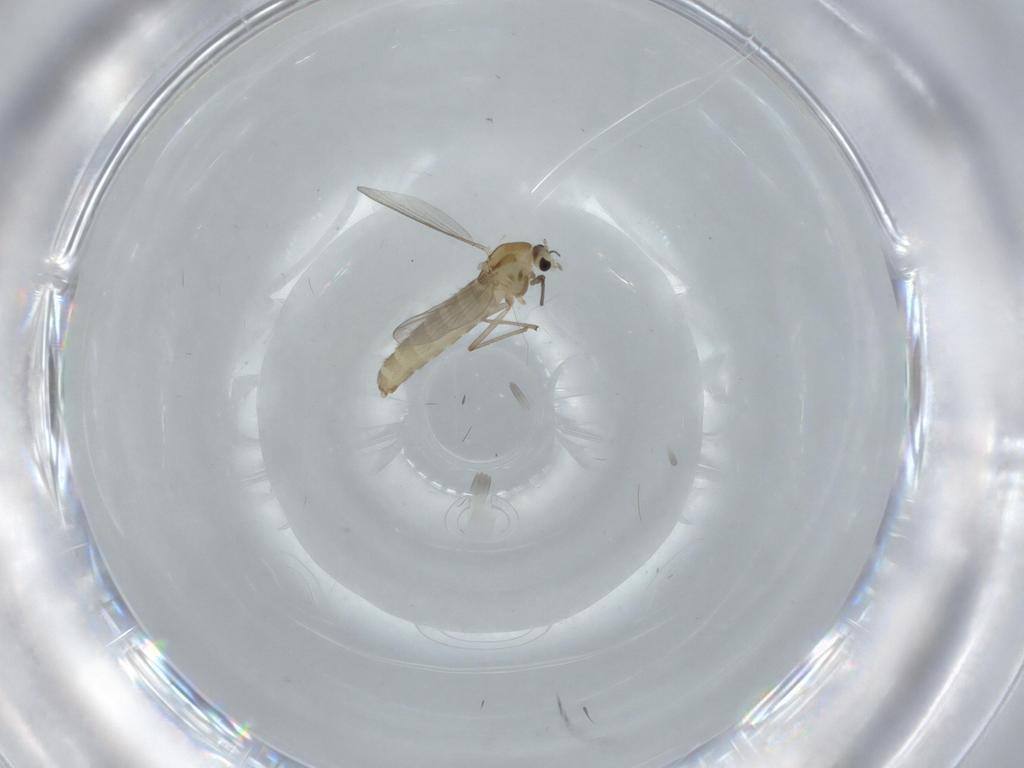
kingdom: Animalia
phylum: Arthropoda
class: Insecta
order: Diptera
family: Chironomidae
